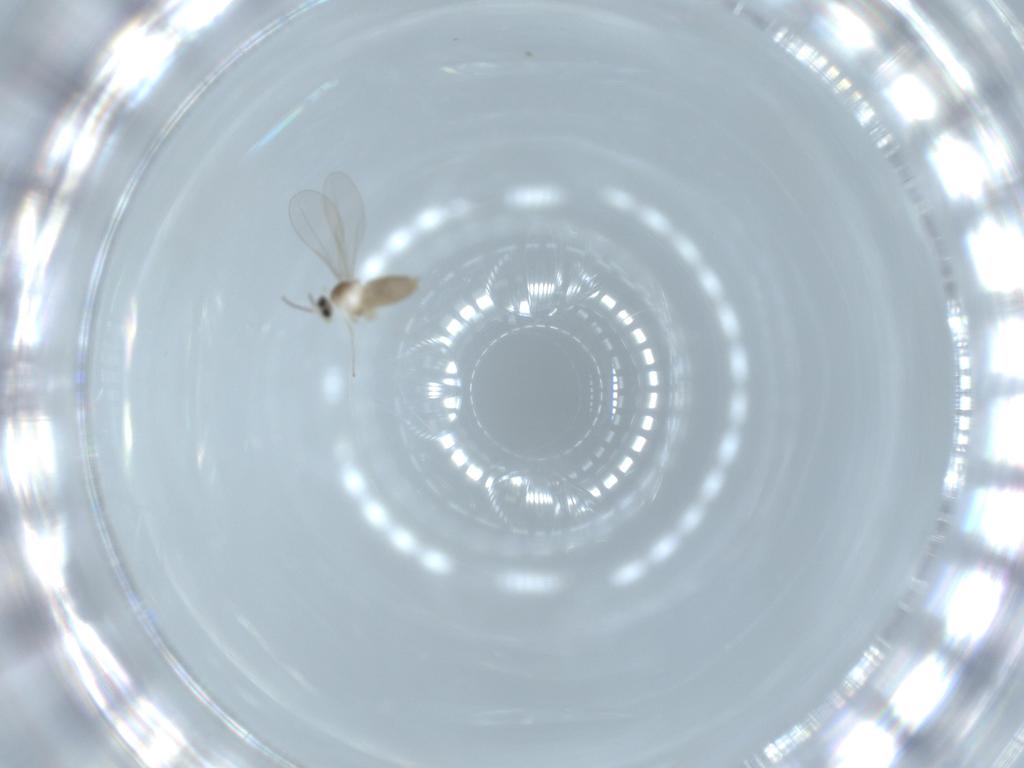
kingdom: Animalia
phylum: Arthropoda
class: Insecta
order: Diptera
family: Cecidomyiidae
